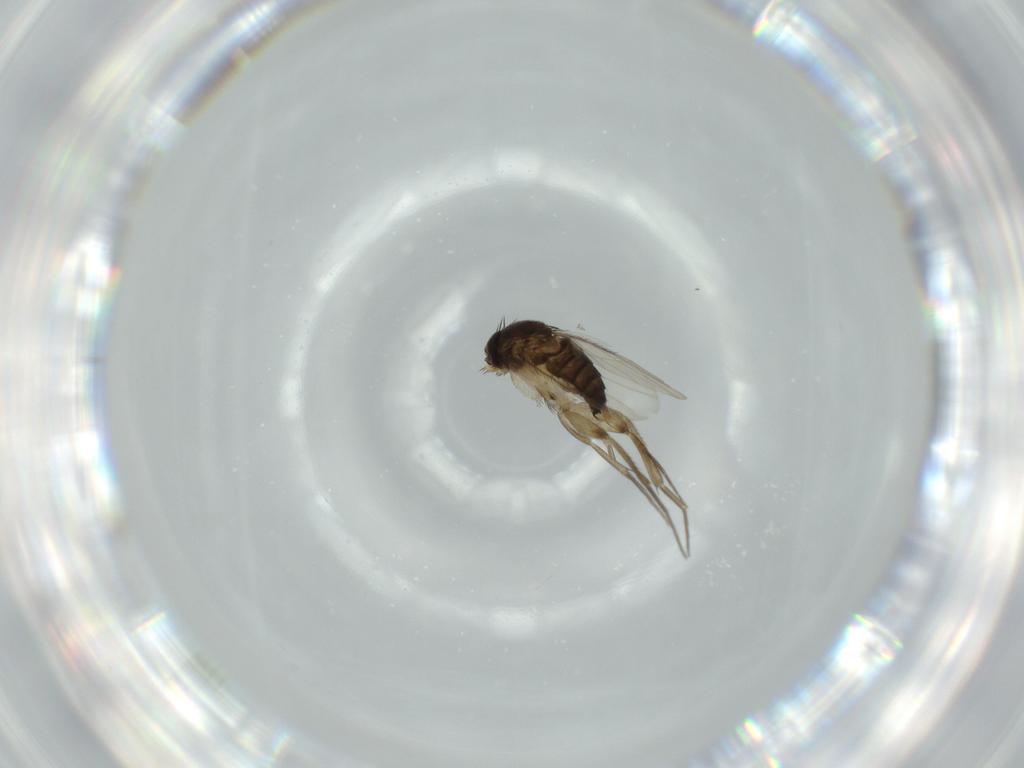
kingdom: Animalia
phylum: Arthropoda
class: Insecta
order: Diptera
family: Phoridae
